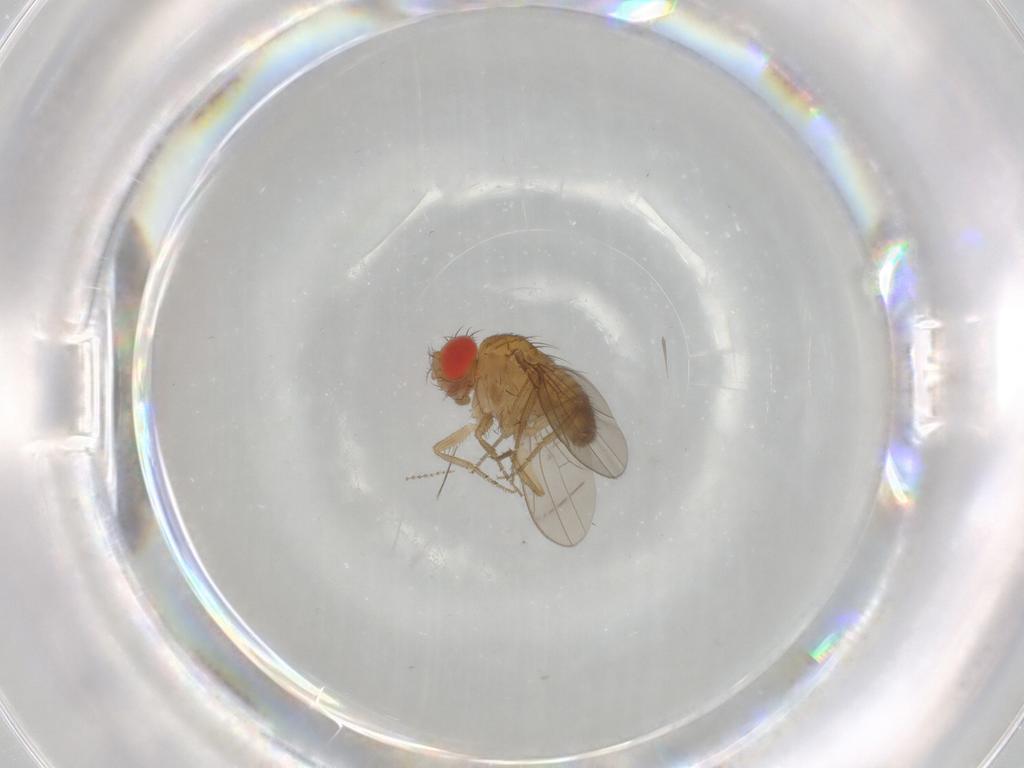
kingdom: Animalia
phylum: Arthropoda
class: Insecta
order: Diptera
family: Drosophilidae
